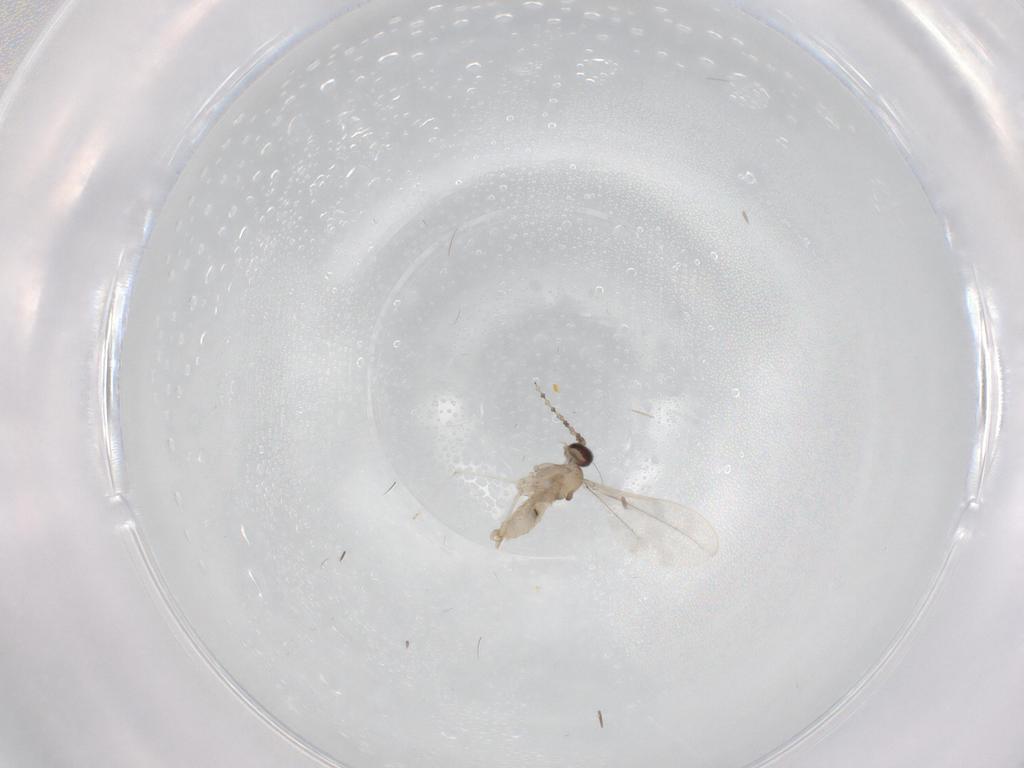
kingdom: Animalia
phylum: Arthropoda
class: Insecta
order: Diptera
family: Cecidomyiidae
